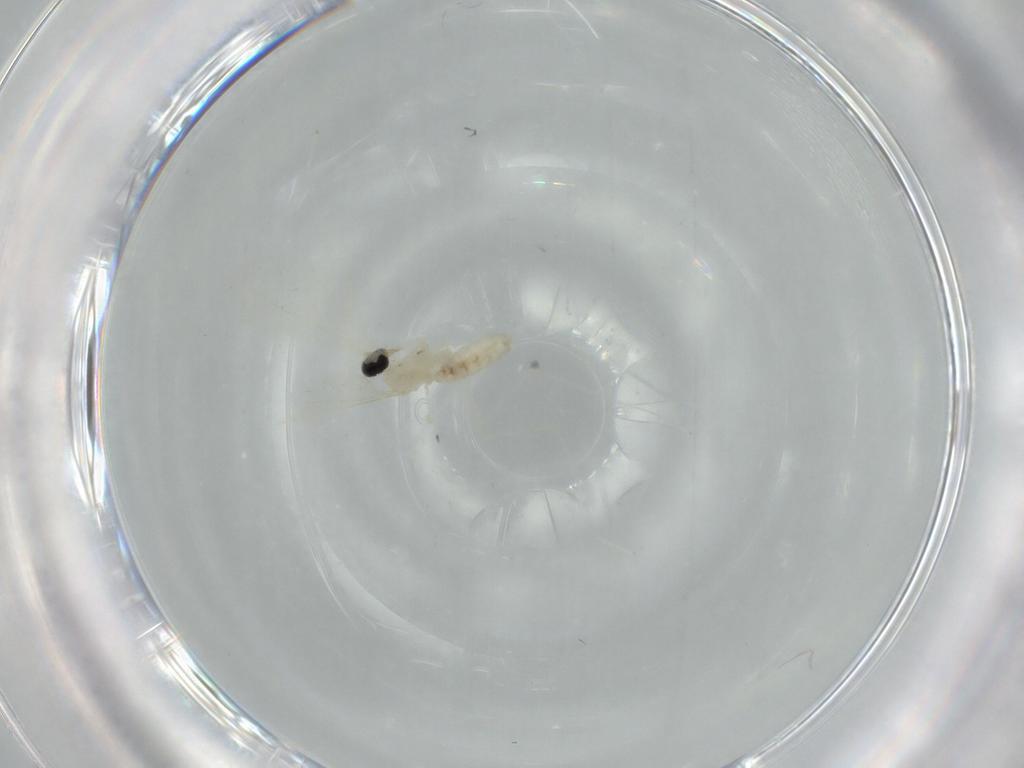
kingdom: Animalia
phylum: Arthropoda
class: Insecta
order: Diptera
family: Cecidomyiidae
